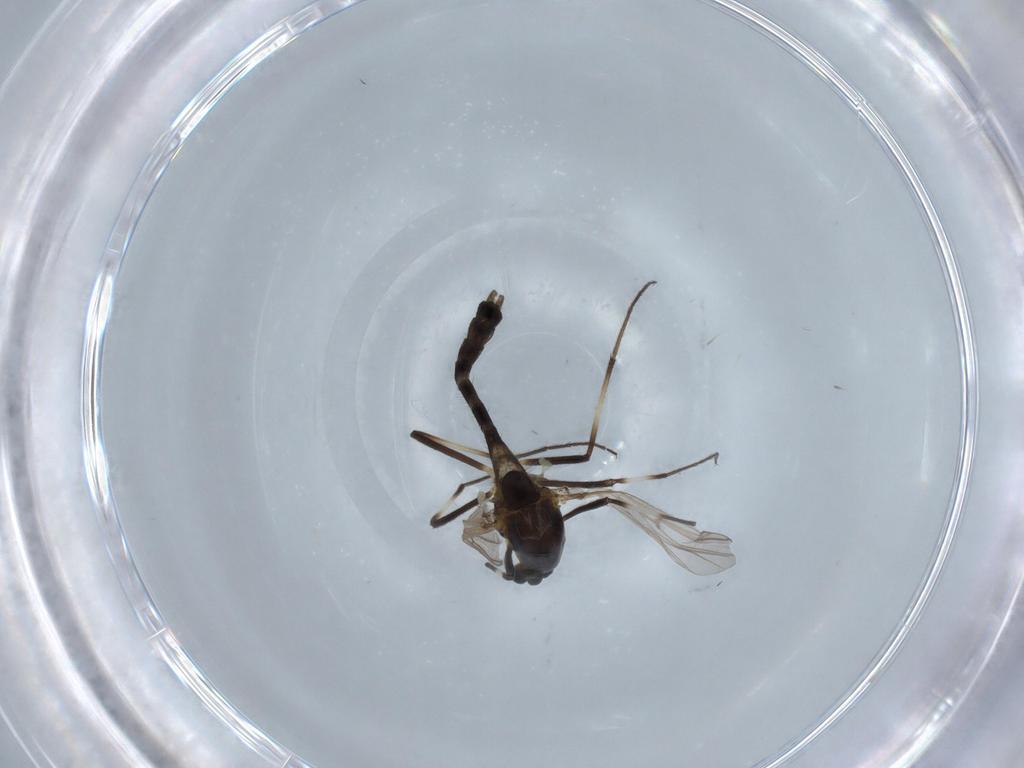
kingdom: Animalia
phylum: Arthropoda
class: Insecta
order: Diptera
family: Chironomidae
